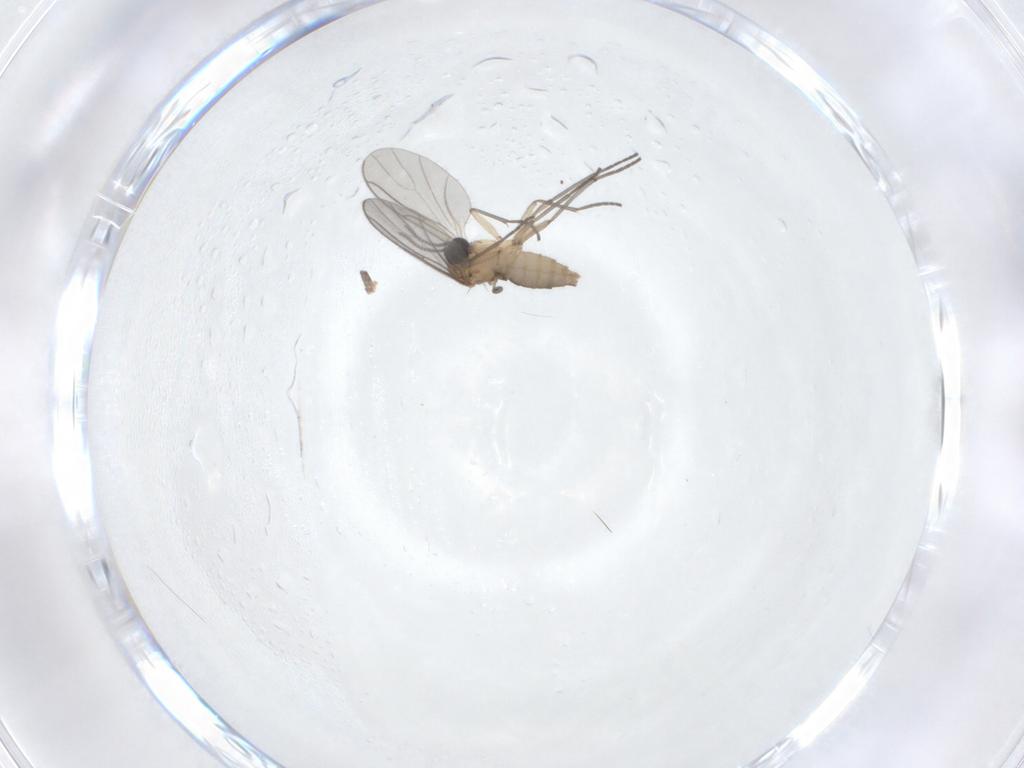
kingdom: Animalia
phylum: Arthropoda
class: Insecta
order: Diptera
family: Sciaridae
